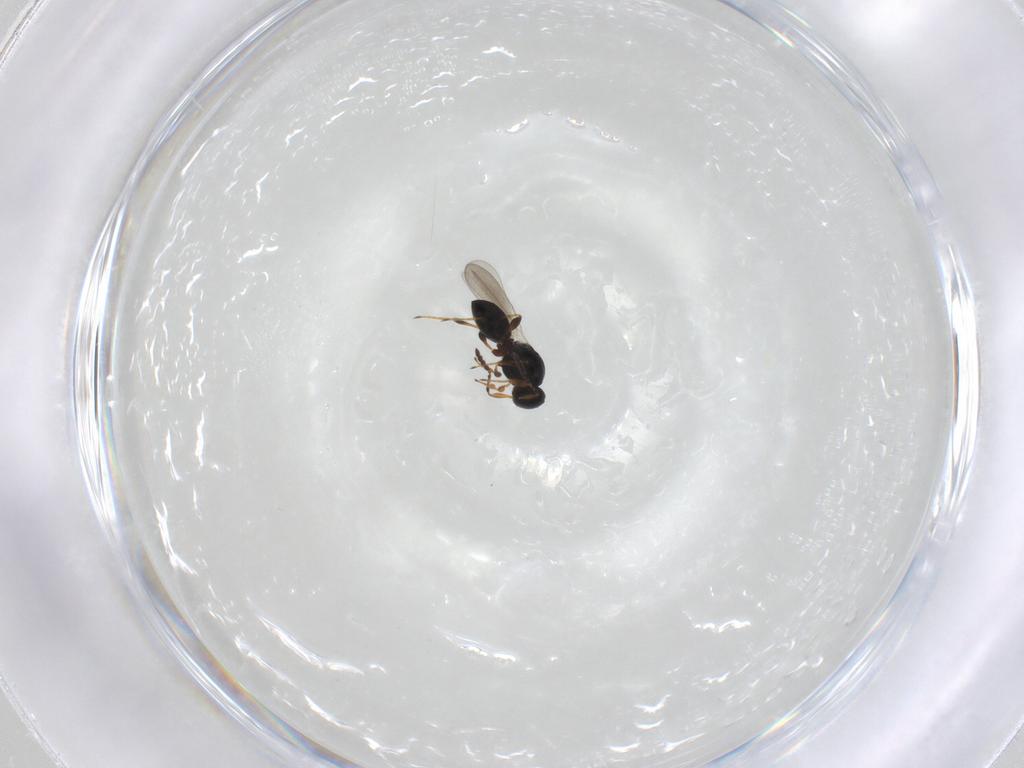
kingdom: Animalia
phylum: Arthropoda
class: Insecta
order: Hymenoptera
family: Platygastridae
